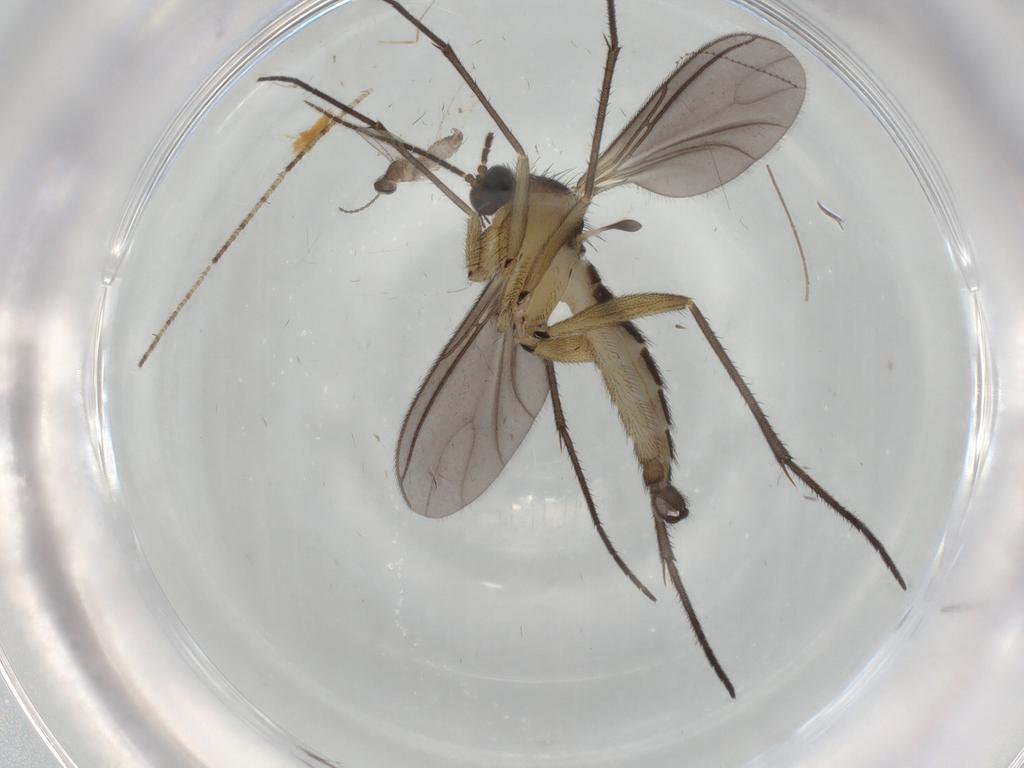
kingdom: Animalia
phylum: Arthropoda
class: Insecta
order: Diptera
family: Sciaridae
